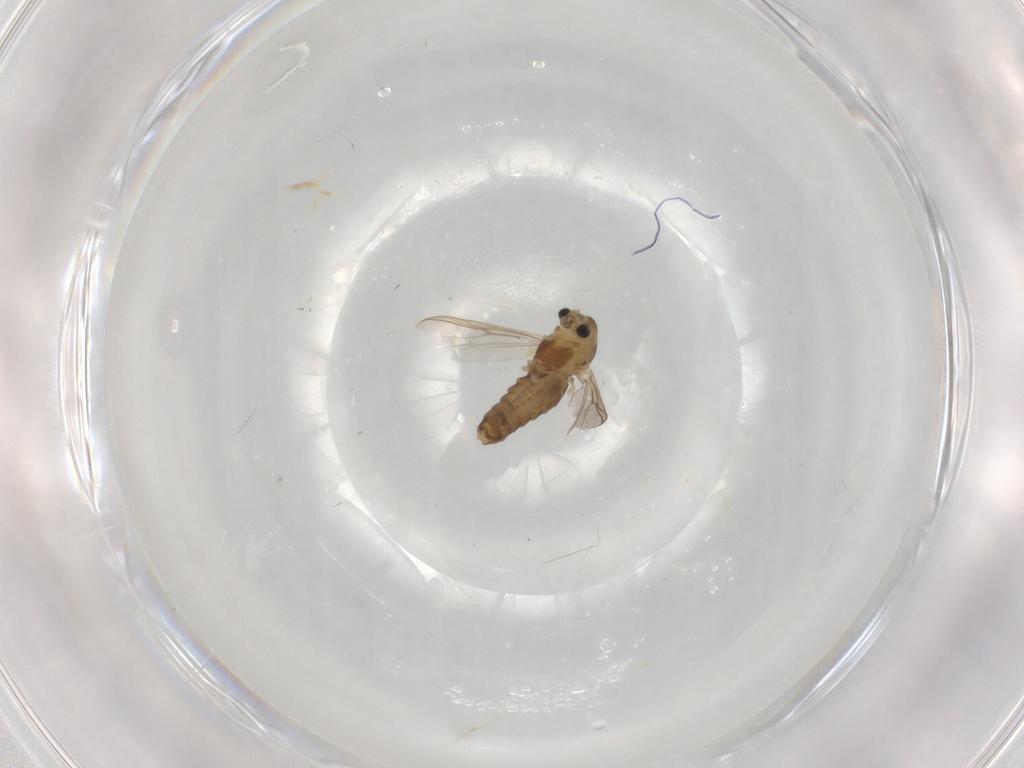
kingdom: Animalia
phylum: Arthropoda
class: Insecta
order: Diptera
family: Chironomidae
